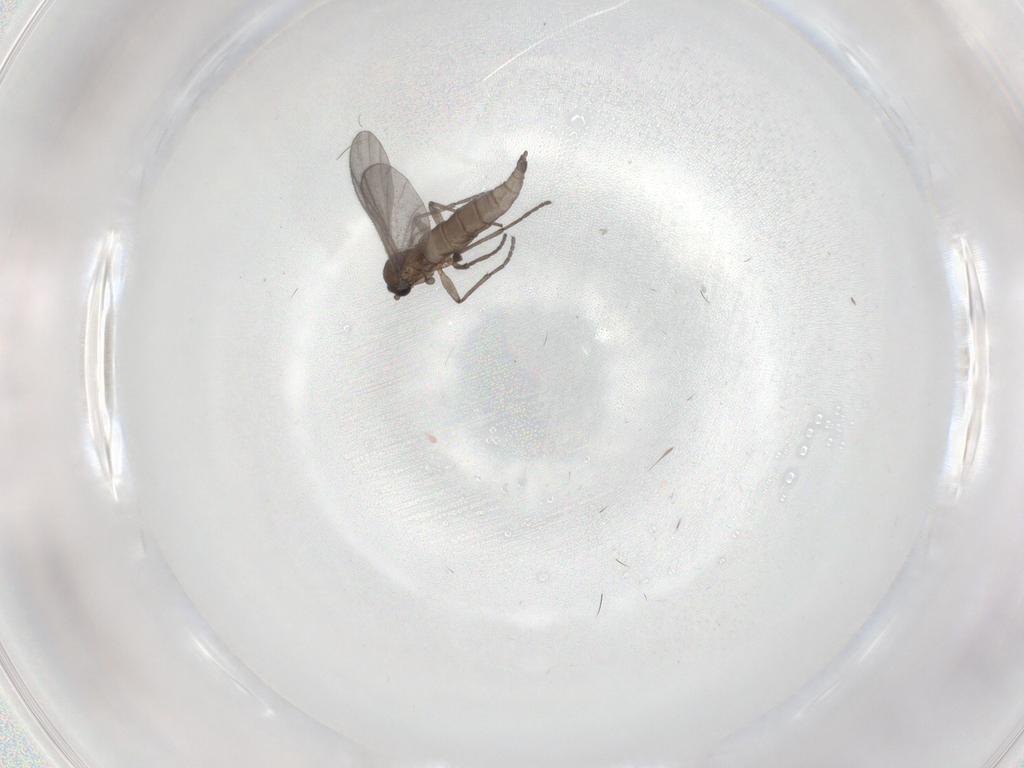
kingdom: Animalia
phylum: Arthropoda
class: Insecta
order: Diptera
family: Sciaridae
